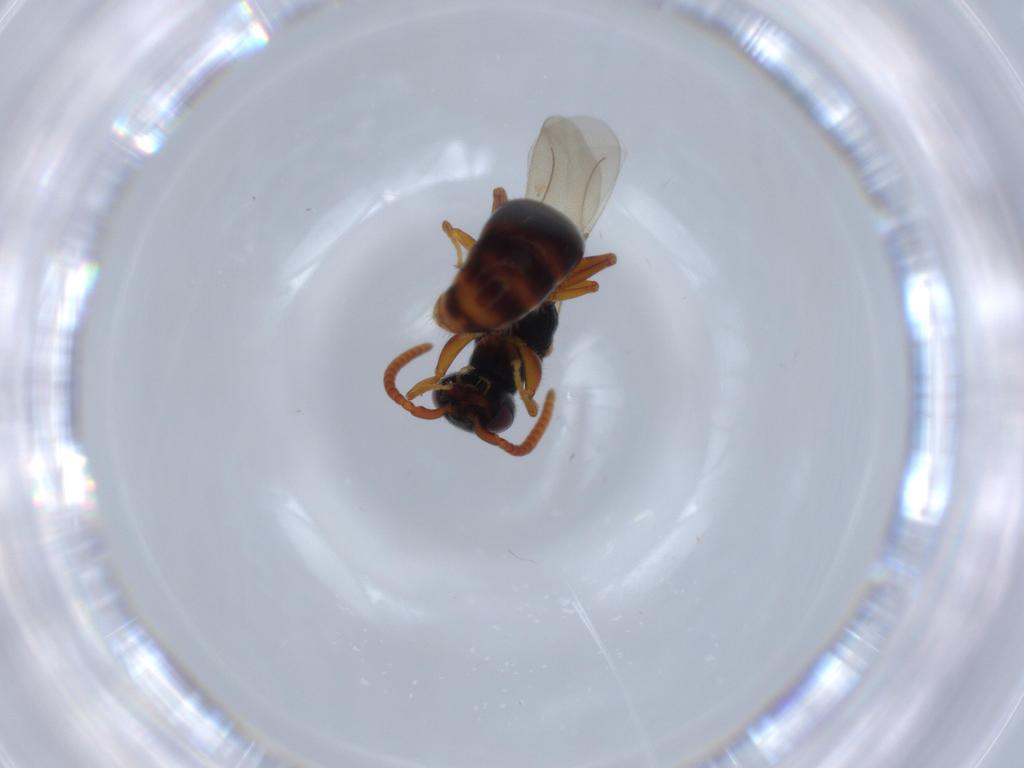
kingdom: Animalia
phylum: Arthropoda
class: Insecta
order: Hymenoptera
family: Bethylidae
